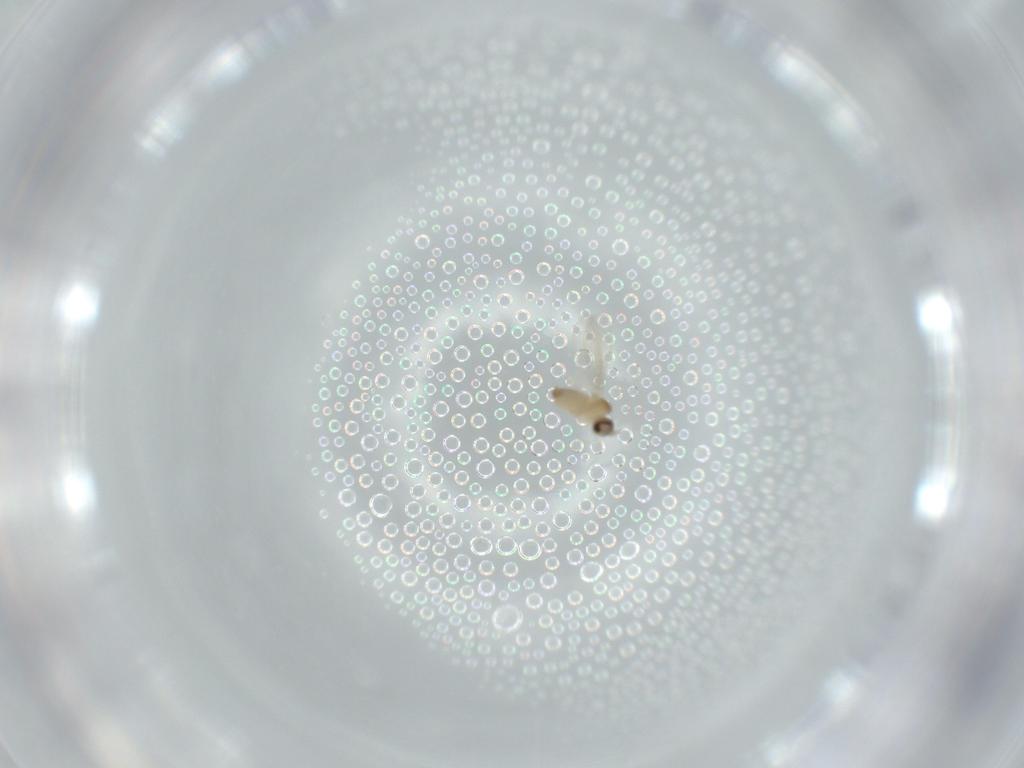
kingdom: Animalia
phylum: Arthropoda
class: Insecta
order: Diptera
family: Cecidomyiidae
